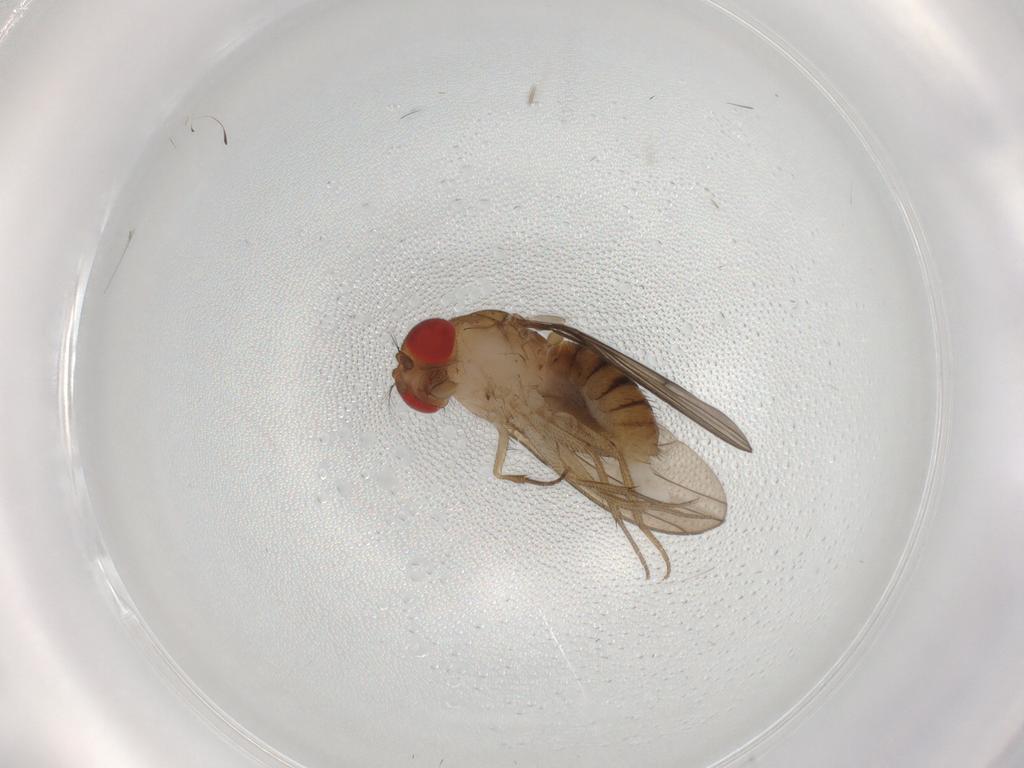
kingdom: Animalia
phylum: Arthropoda
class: Insecta
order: Diptera
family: Drosophilidae
